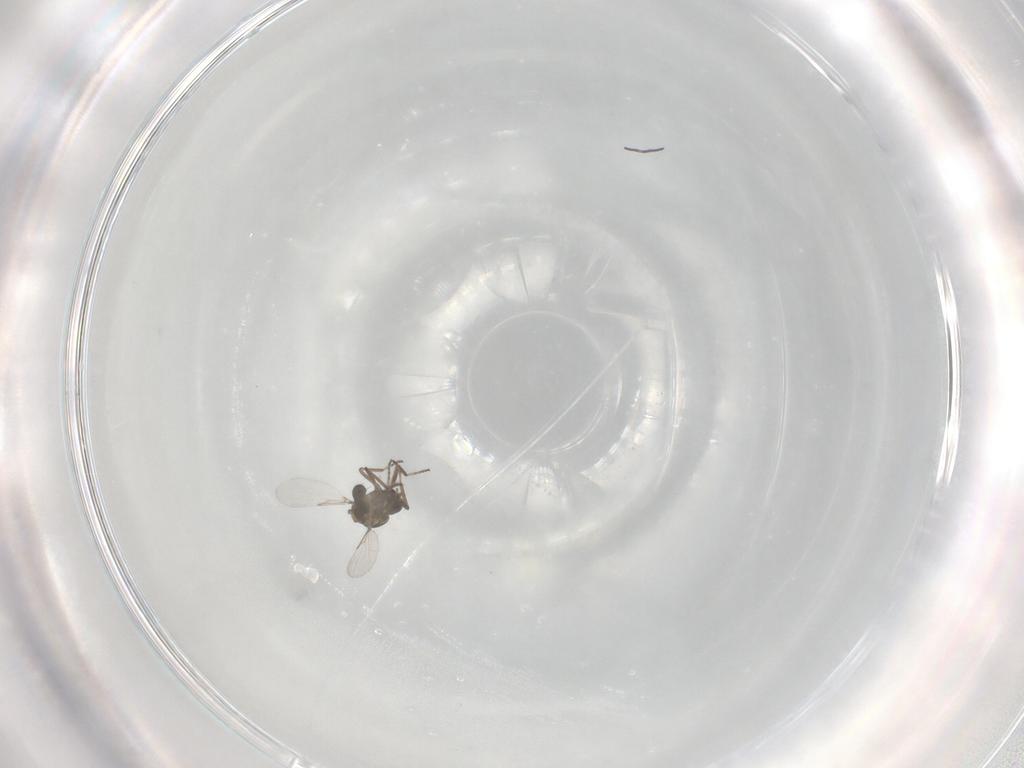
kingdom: Animalia
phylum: Arthropoda
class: Insecta
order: Diptera
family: Ceratopogonidae
